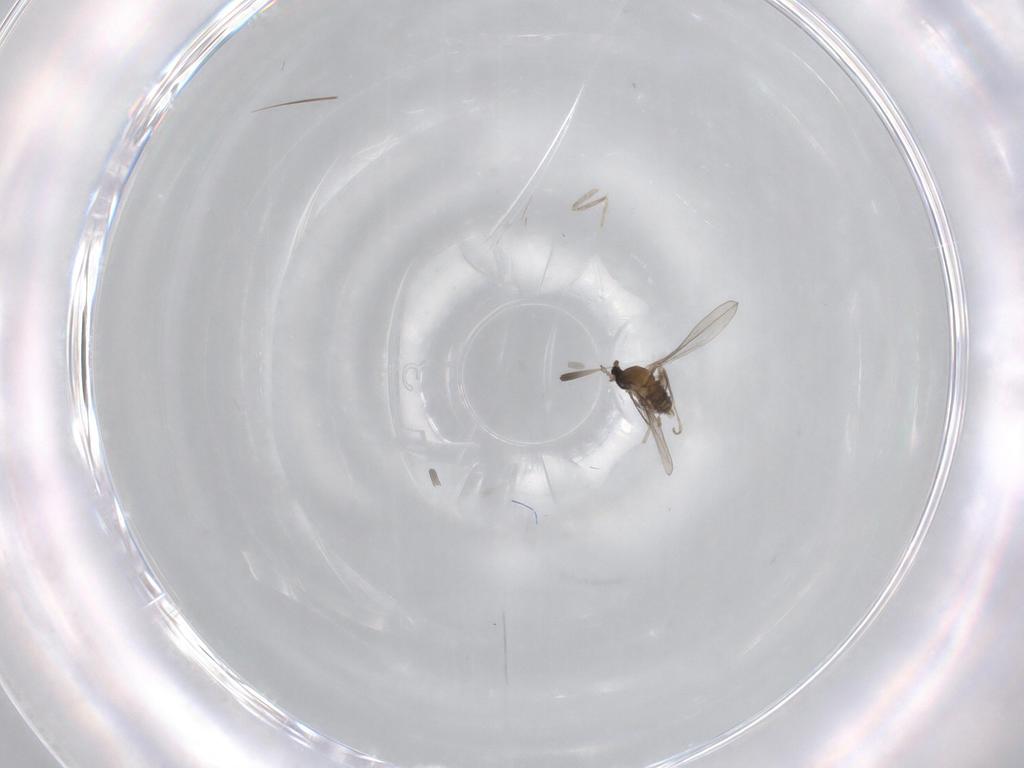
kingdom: Animalia
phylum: Arthropoda
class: Insecta
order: Diptera
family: Cecidomyiidae
